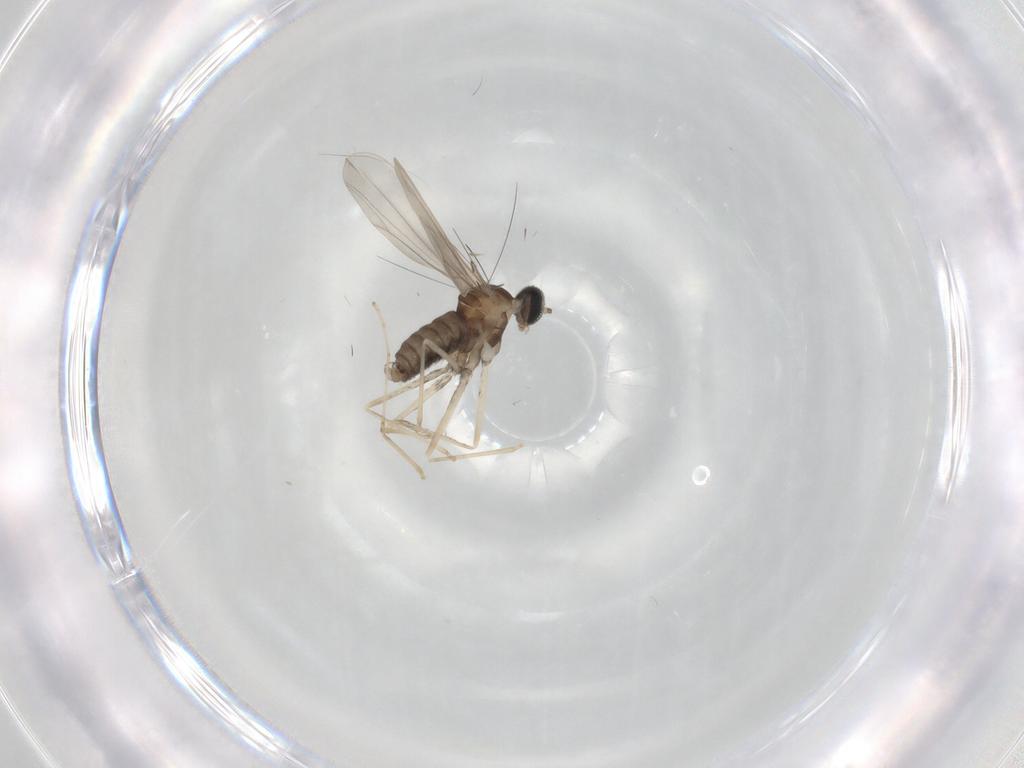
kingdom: Animalia
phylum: Arthropoda
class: Insecta
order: Diptera
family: Cecidomyiidae
